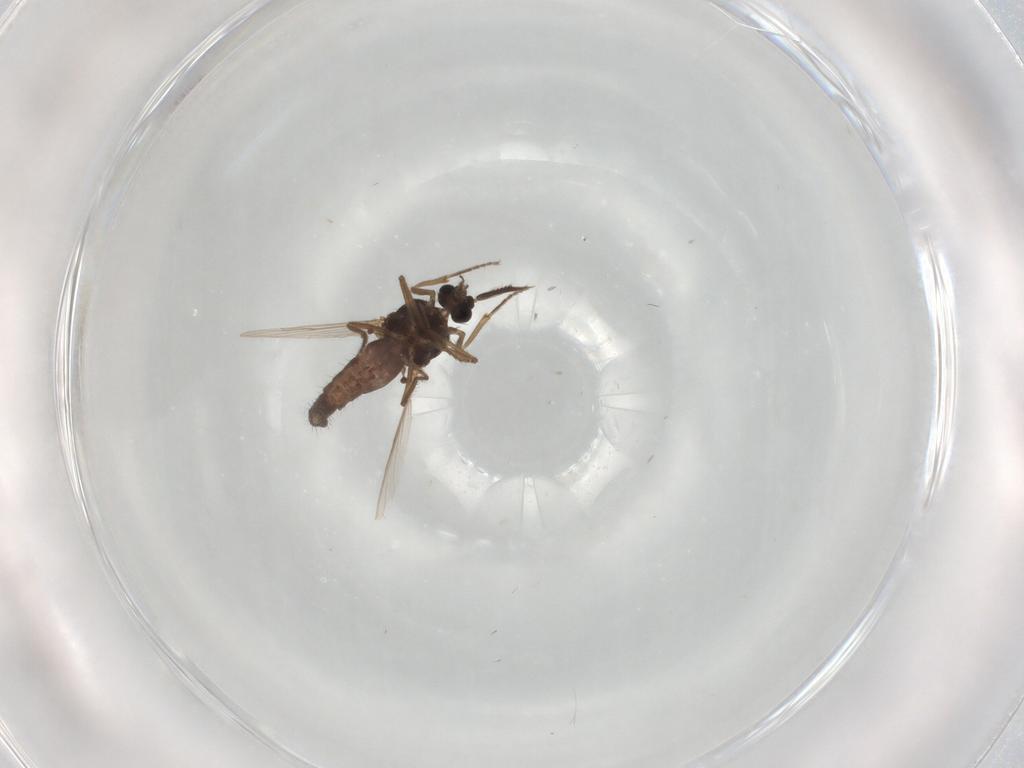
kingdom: Animalia
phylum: Arthropoda
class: Insecta
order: Diptera
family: Ceratopogonidae
